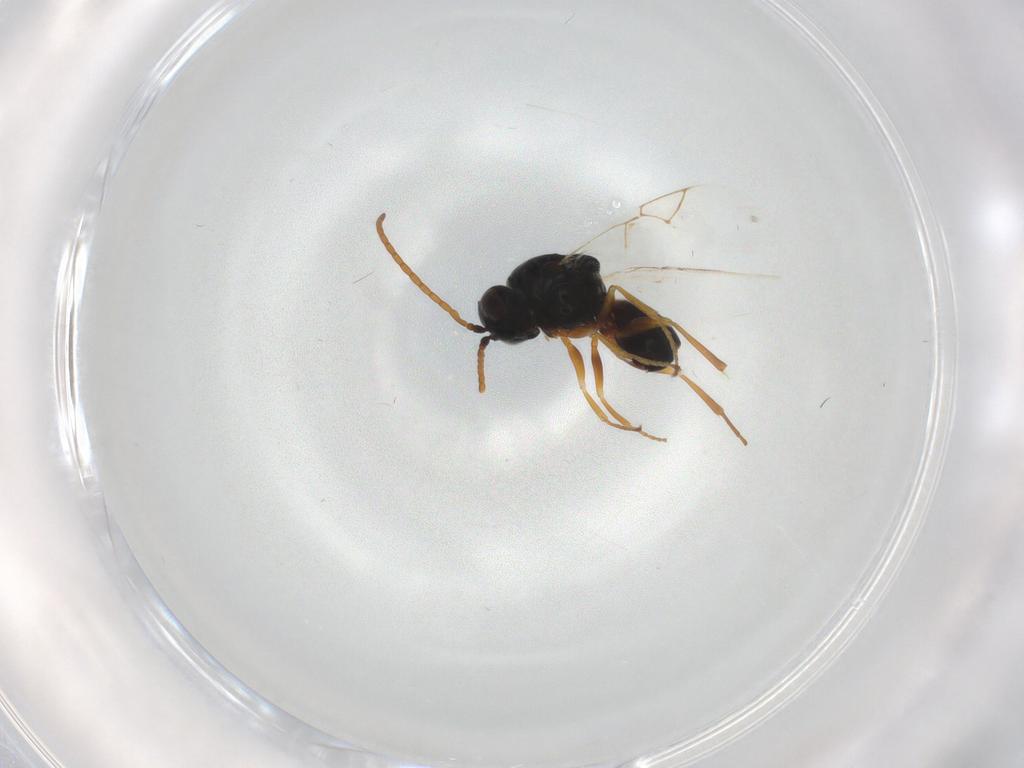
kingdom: Animalia
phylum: Arthropoda
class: Insecta
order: Hymenoptera
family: Figitidae
